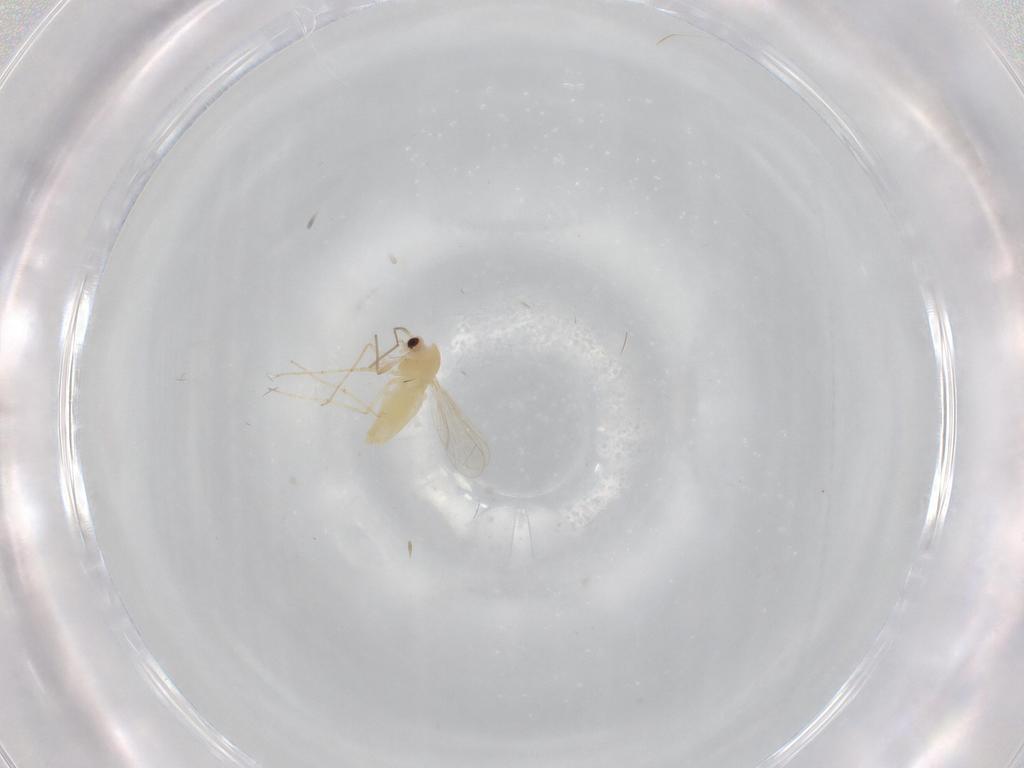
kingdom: Animalia
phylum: Arthropoda
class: Insecta
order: Diptera
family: Chironomidae
